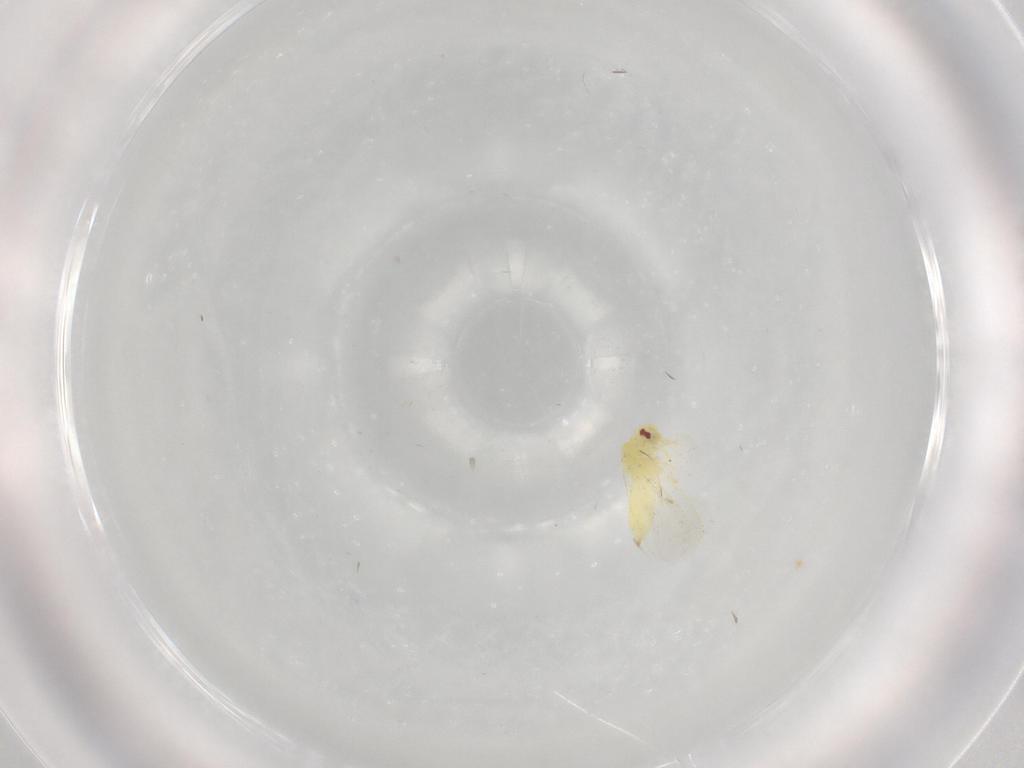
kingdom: Animalia
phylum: Arthropoda
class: Insecta
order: Hemiptera
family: Aleyrodidae
